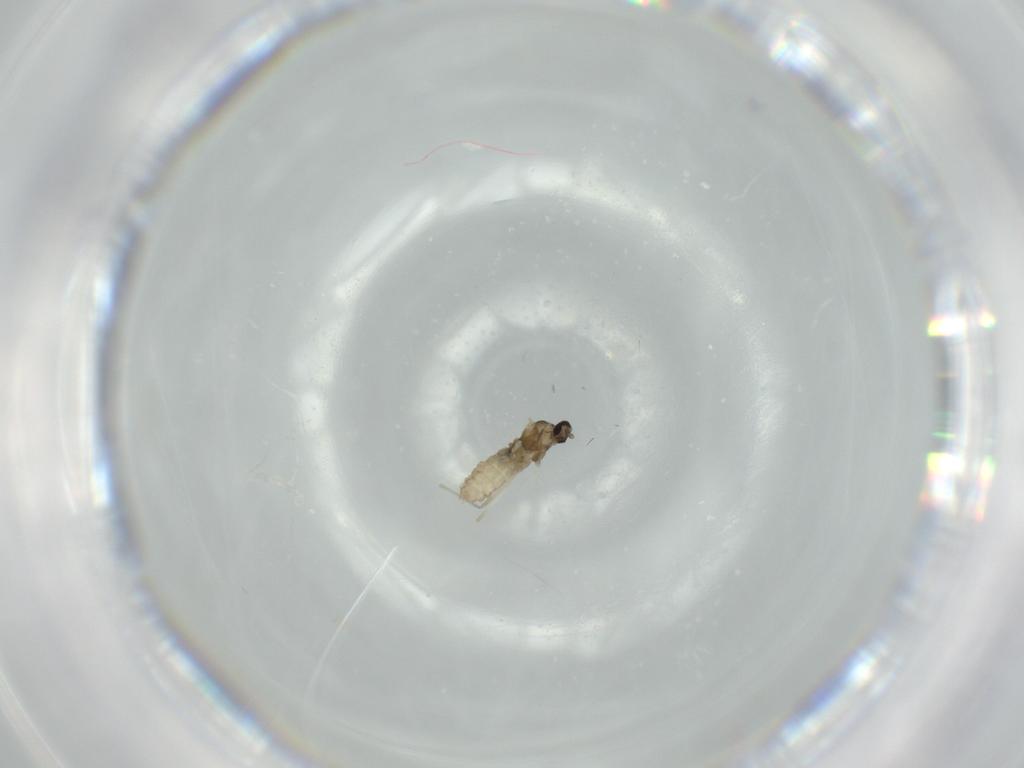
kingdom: Animalia
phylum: Arthropoda
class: Insecta
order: Diptera
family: Cecidomyiidae
